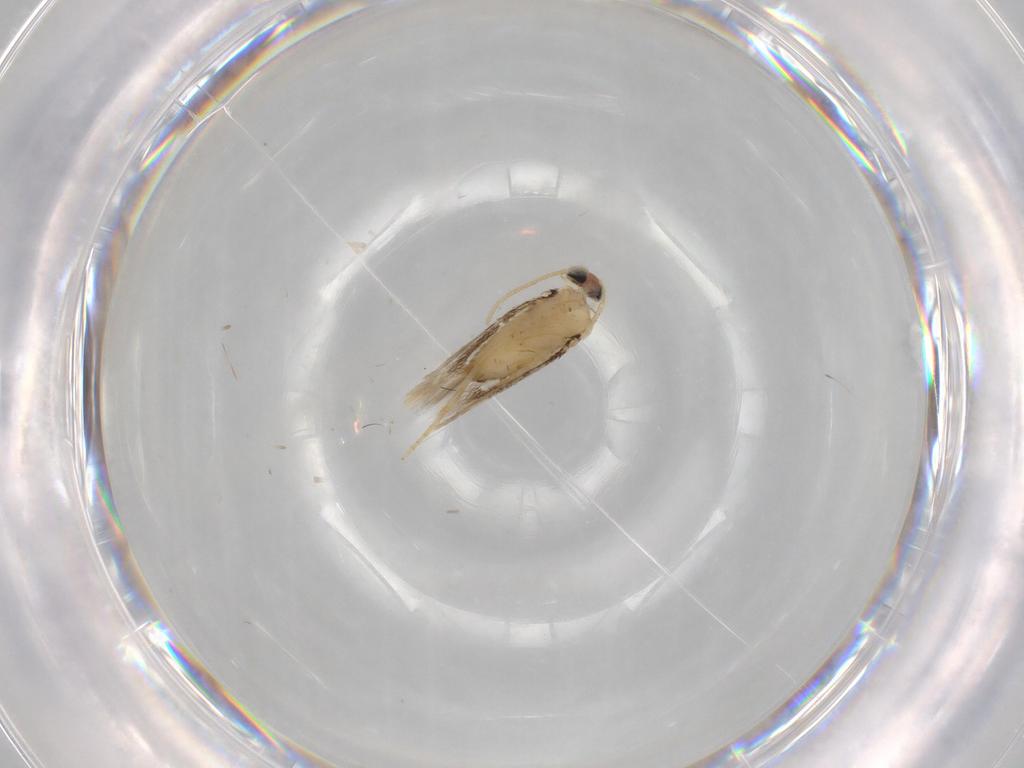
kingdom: Animalia
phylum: Arthropoda
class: Insecta
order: Lepidoptera
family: Nepticulidae
